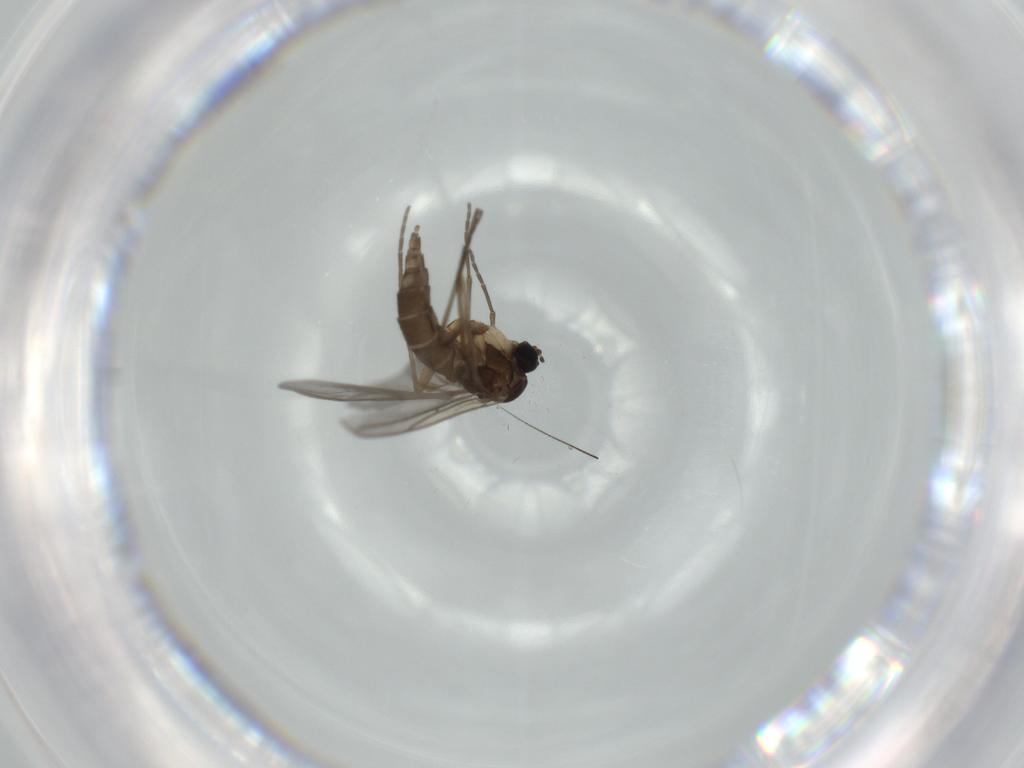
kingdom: Animalia
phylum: Arthropoda
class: Insecta
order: Diptera
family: Sciaridae
